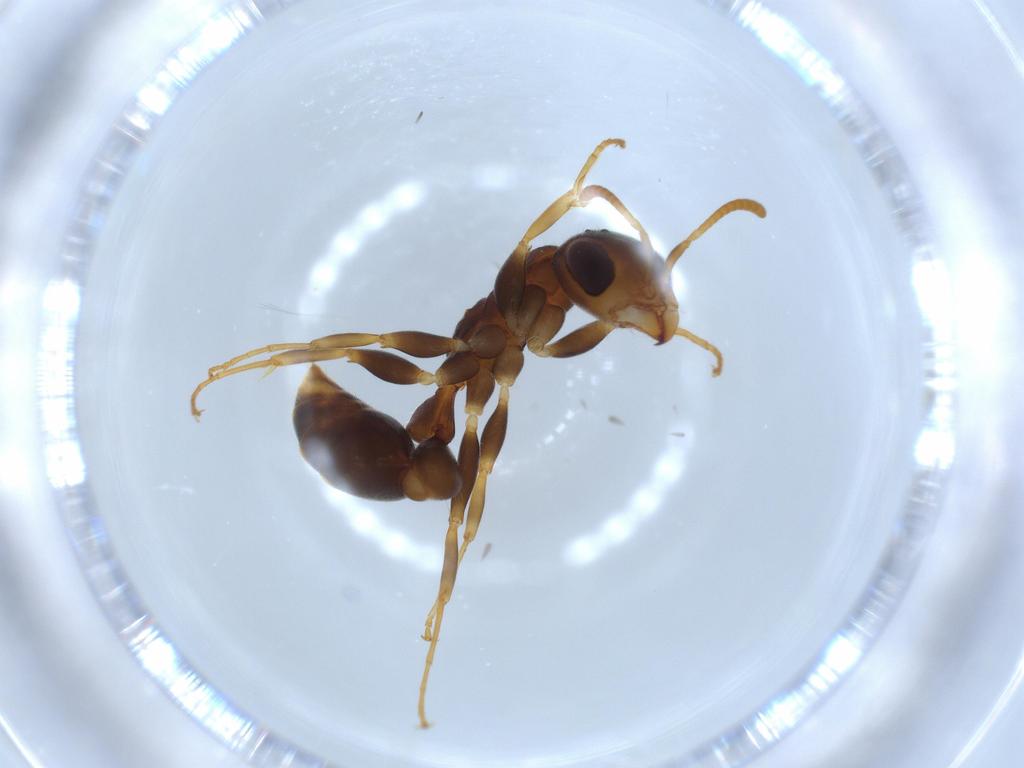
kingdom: Animalia
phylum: Arthropoda
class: Insecta
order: Hymenoptera
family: Formicidae
